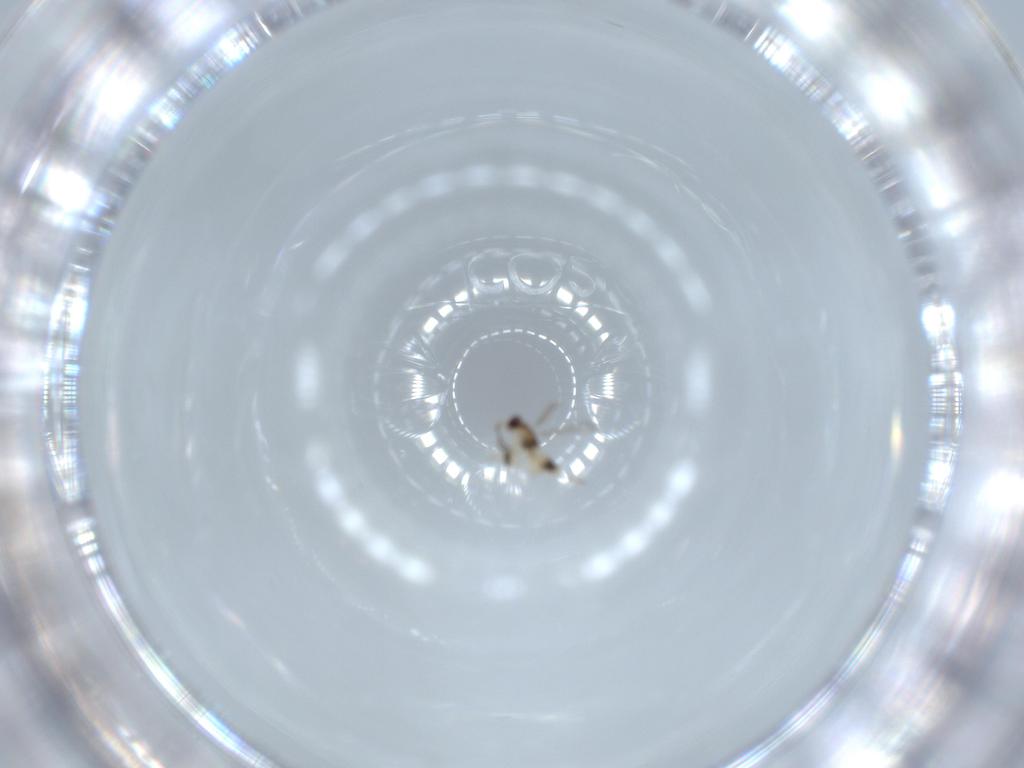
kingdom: Animalia
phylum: Arthropoda
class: Insecta
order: Hymenoptera
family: Mymaridae
